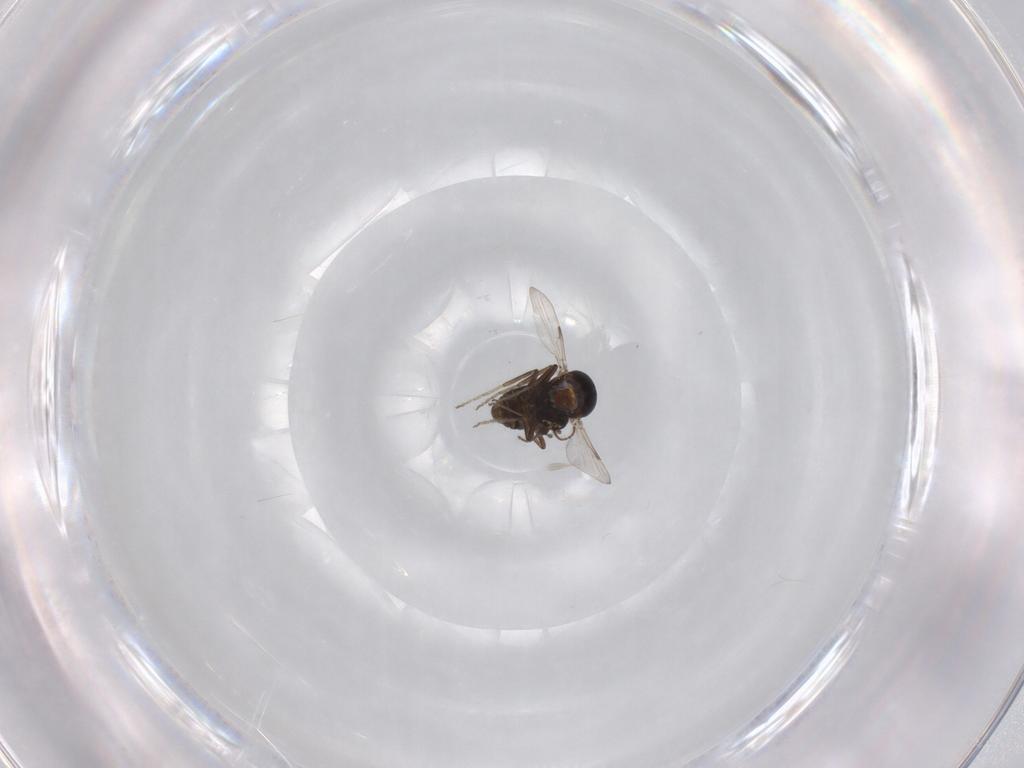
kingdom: Animalia
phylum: Arthropoda
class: Insecta
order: Diptera
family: Ceratopogonidae
